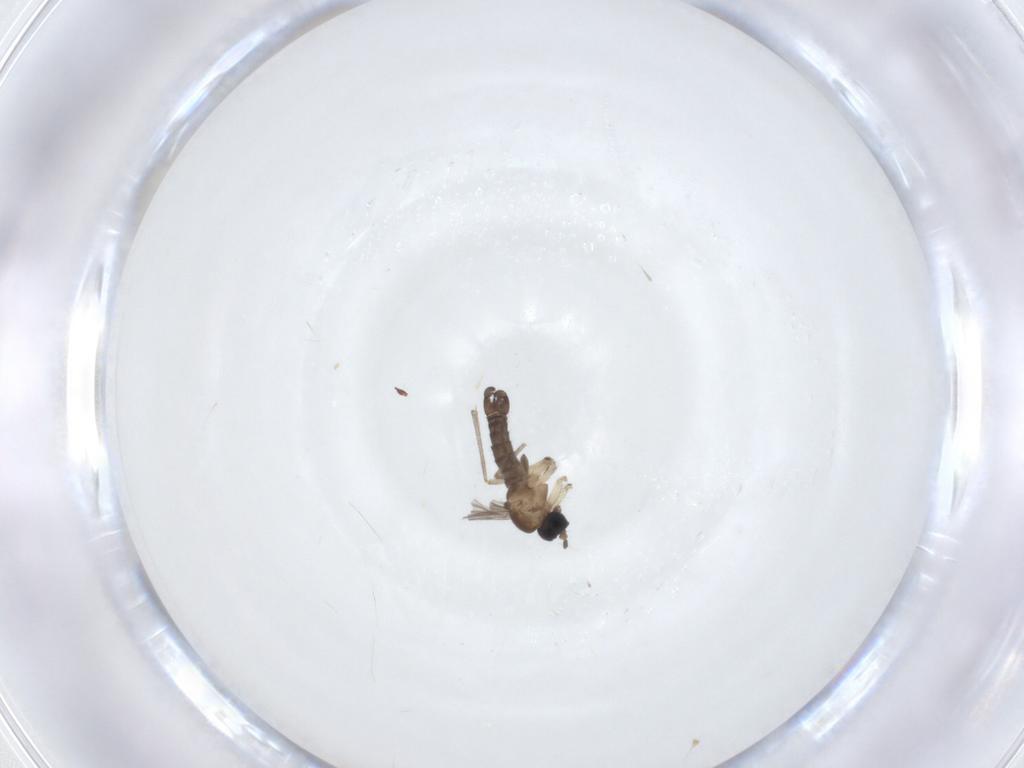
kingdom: Animalia
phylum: Arthropoda
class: Insecta
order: Diptera
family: Sciaridae
